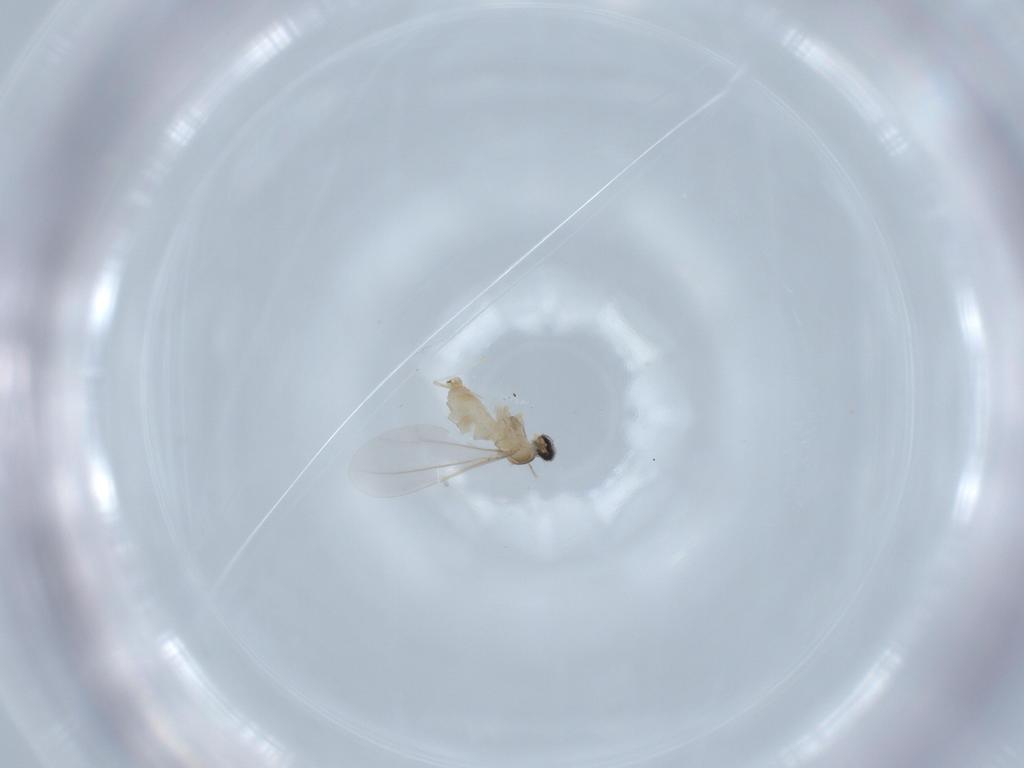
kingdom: Animalia
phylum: Arthropoda
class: Insecta
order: Diptera
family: Cecidomyiidae
